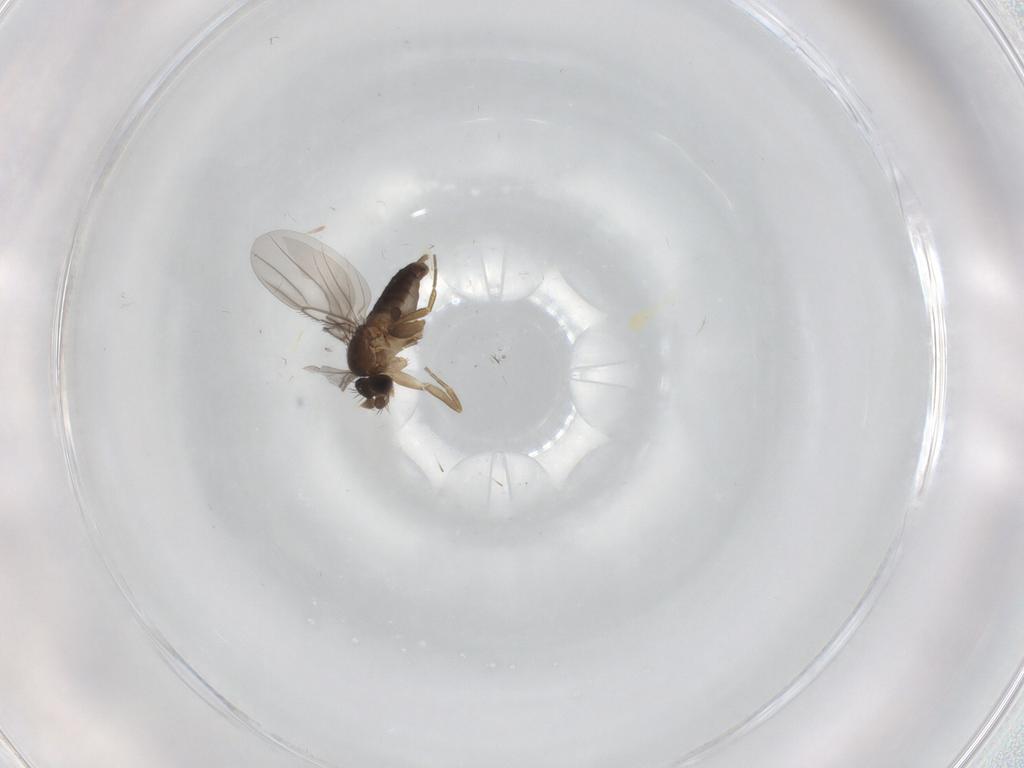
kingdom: Animalia
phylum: Arthropoda
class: Insecta
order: Diptera
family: Phoridae
